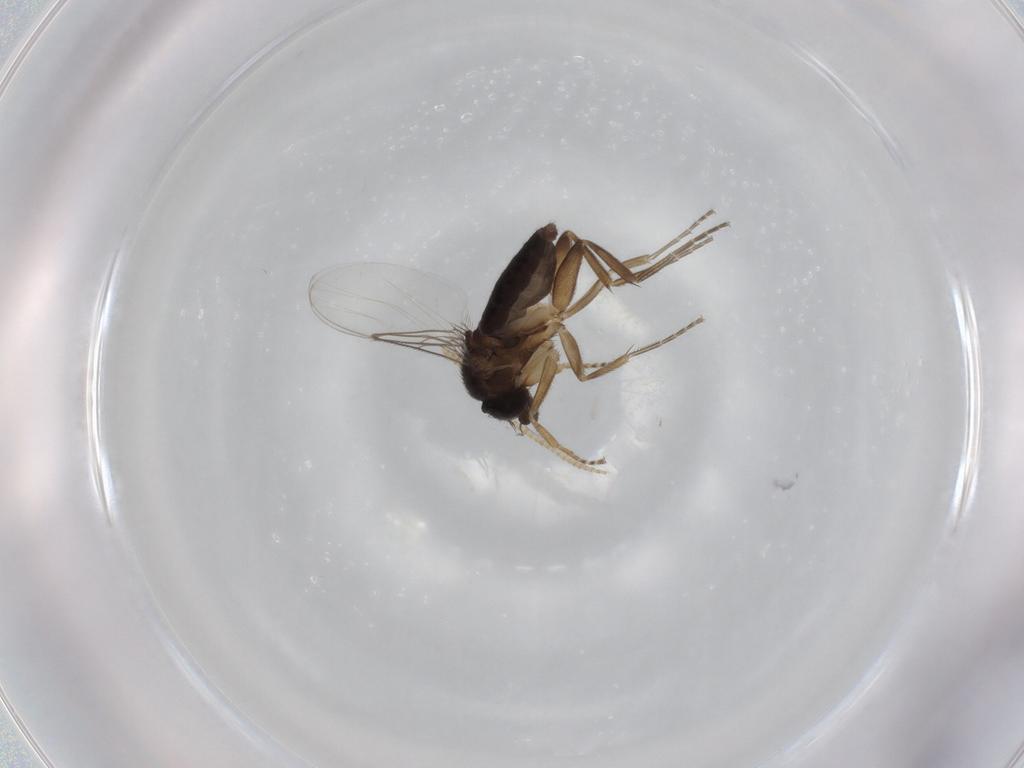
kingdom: Animalia
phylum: Arthropoda
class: Insecta
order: Diptera
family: Phoridae
